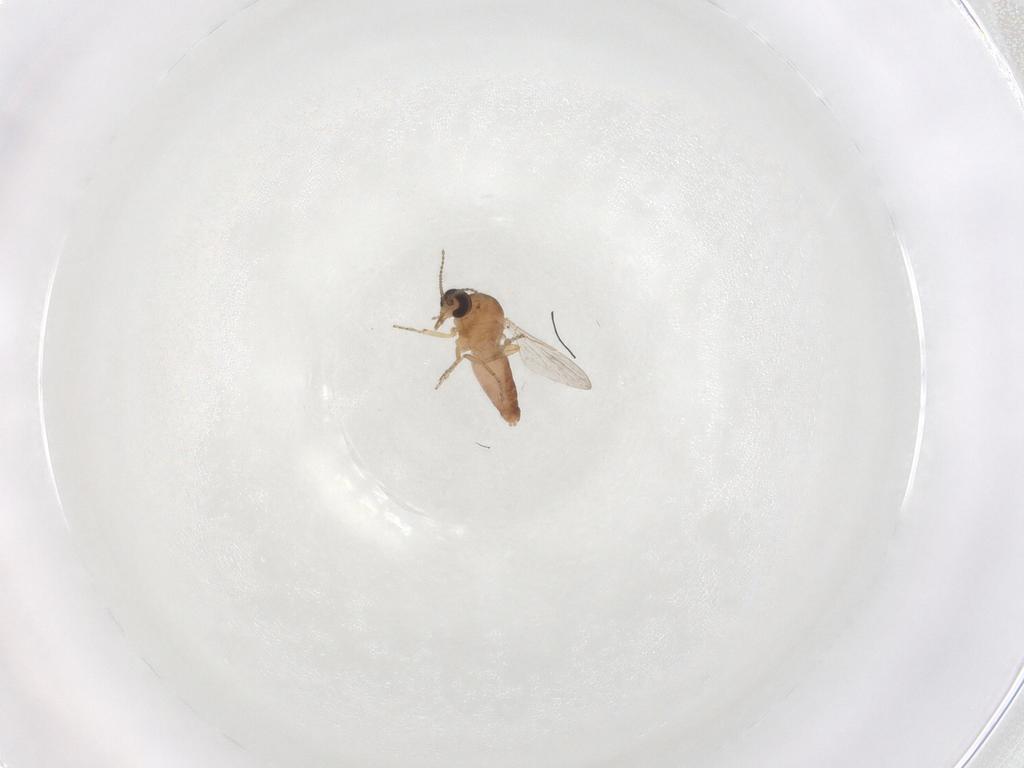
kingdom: Animalia
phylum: Arthropoda
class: Insecta
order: Diptera
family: Ceratopogonidae
